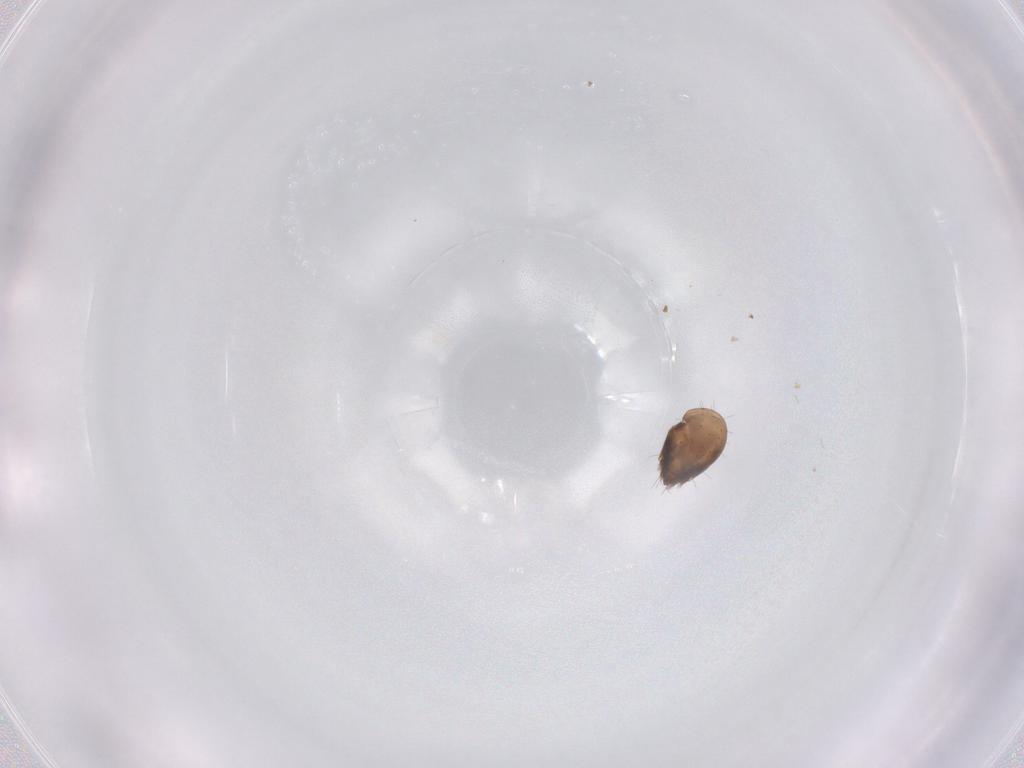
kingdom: Animalia
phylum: Arthropoda
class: Arachnida
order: Sarcoptiformes
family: Humerobatidae
